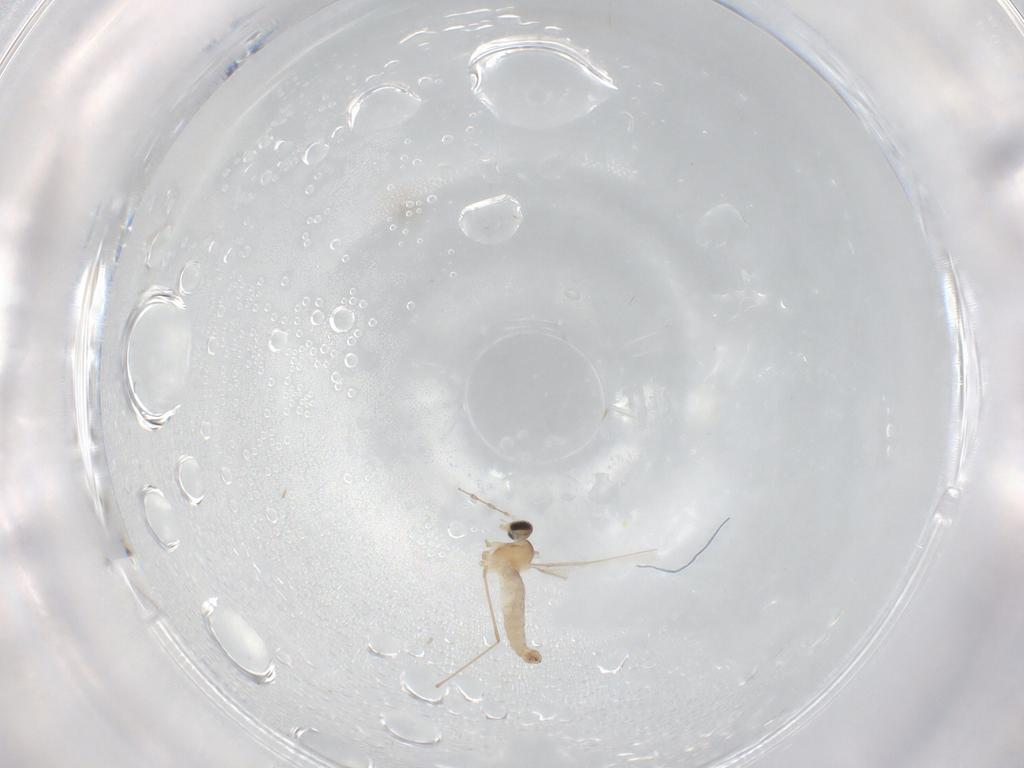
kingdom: Animalia
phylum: Arthropoda
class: Insecta
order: Diptera
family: Cecidomyiidae
